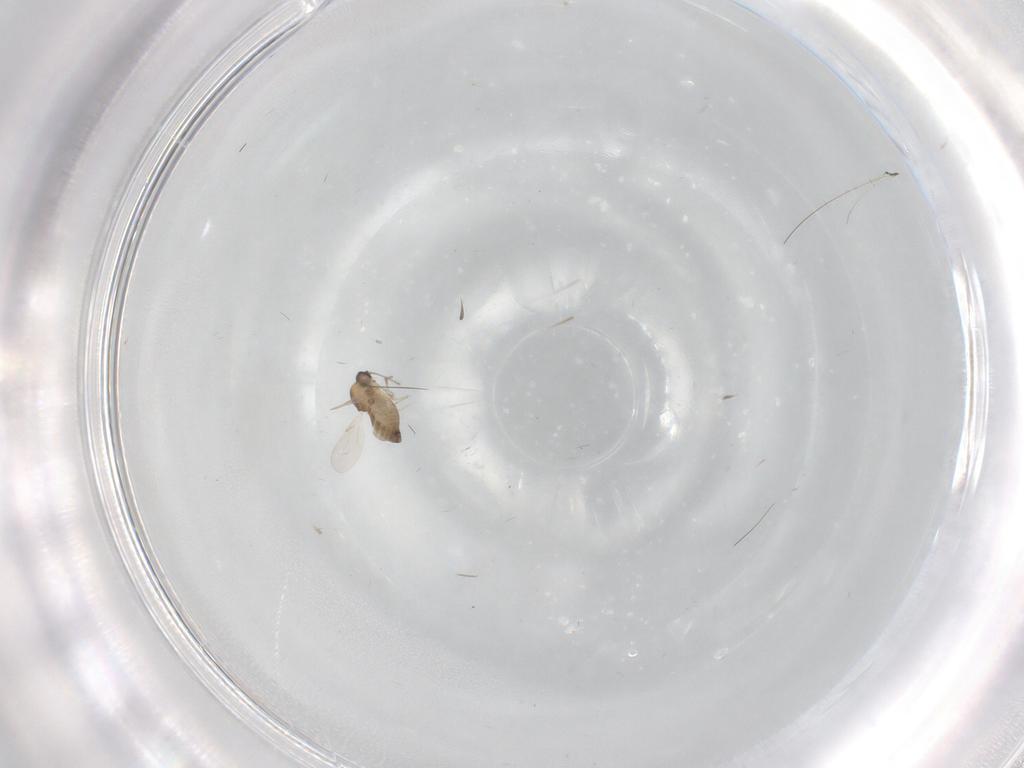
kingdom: Animalia
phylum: Arthropoda
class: Insecta
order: Diptera
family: Ceratopogonidae
